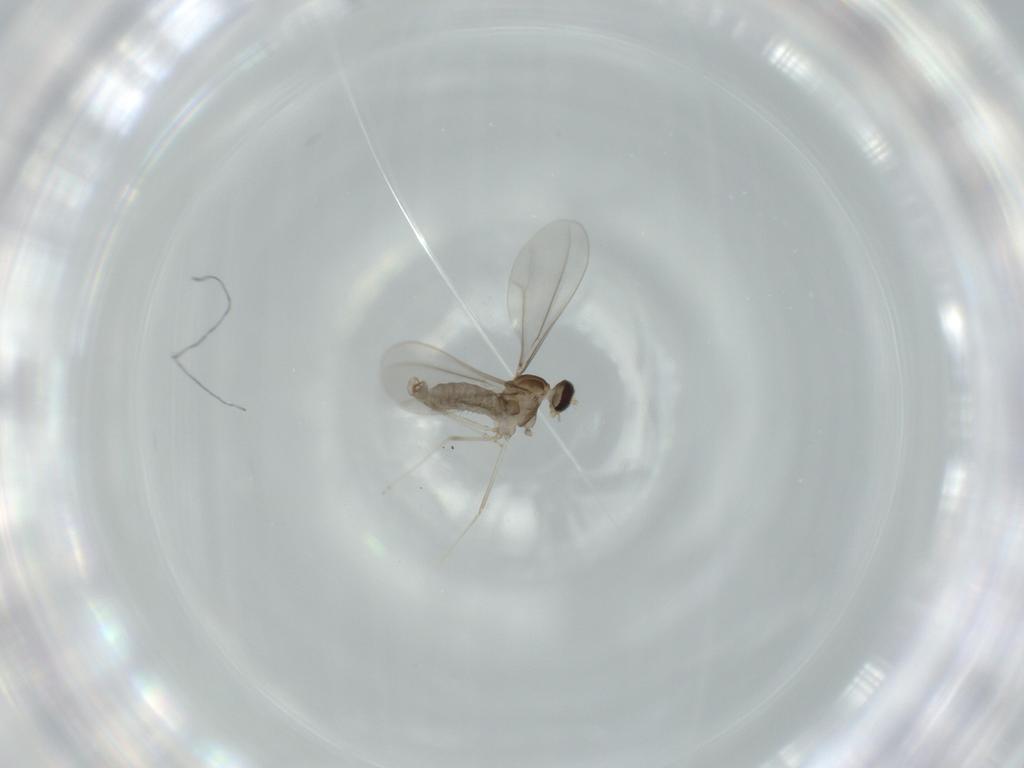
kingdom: Animalia
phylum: Arthropoda
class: Insecta
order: Diptera
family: Cecidomyiidae
